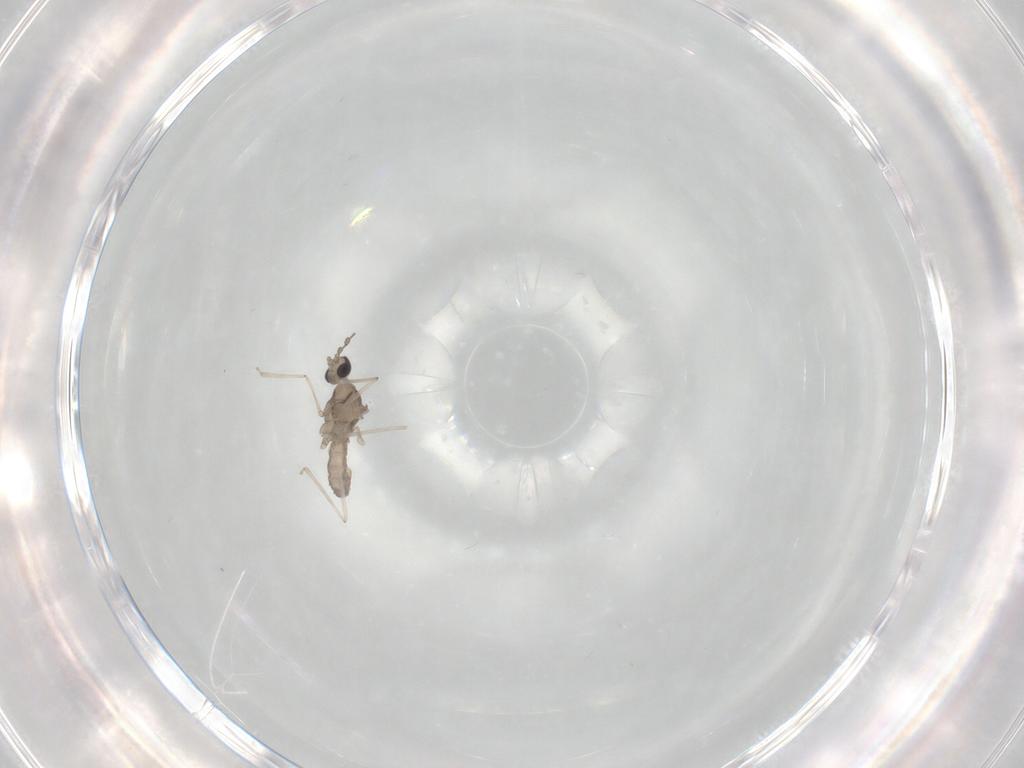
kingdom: Animalia
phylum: Arthropoda
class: Insecta
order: Diptera
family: Cecidomyiidae
